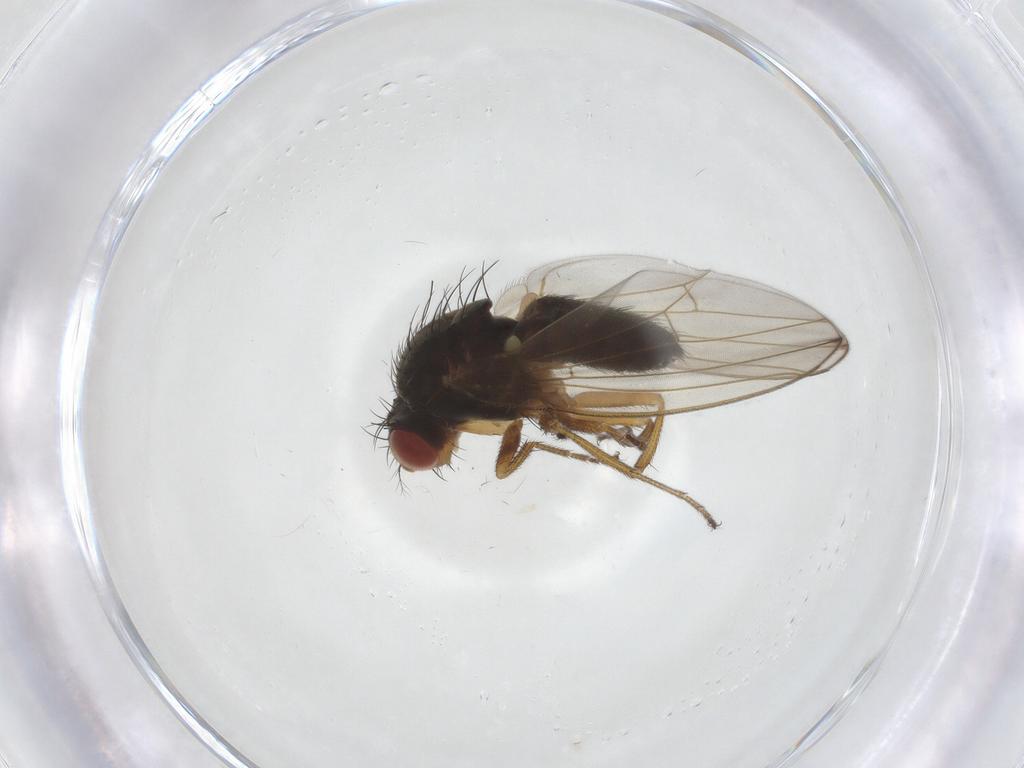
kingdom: Animalia
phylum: Arthropoda
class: Insecta
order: Diptera
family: Drosophilidae
